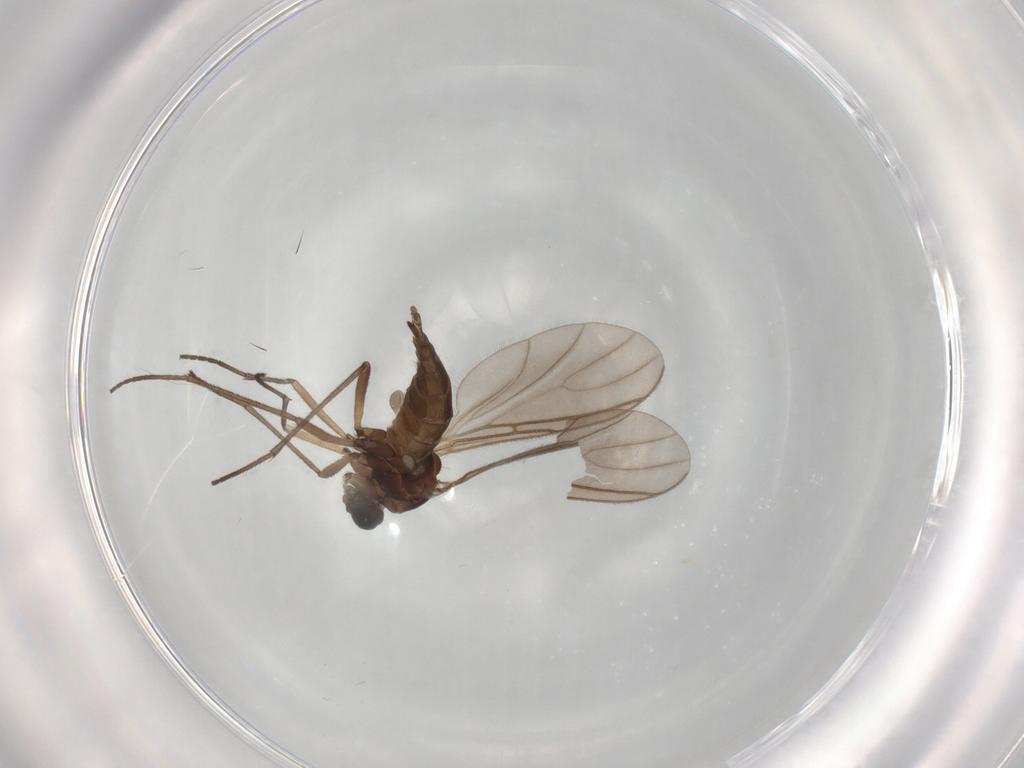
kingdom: Animalia
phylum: Arthropoda
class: Insecta
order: Diptera
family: Sciaridae
